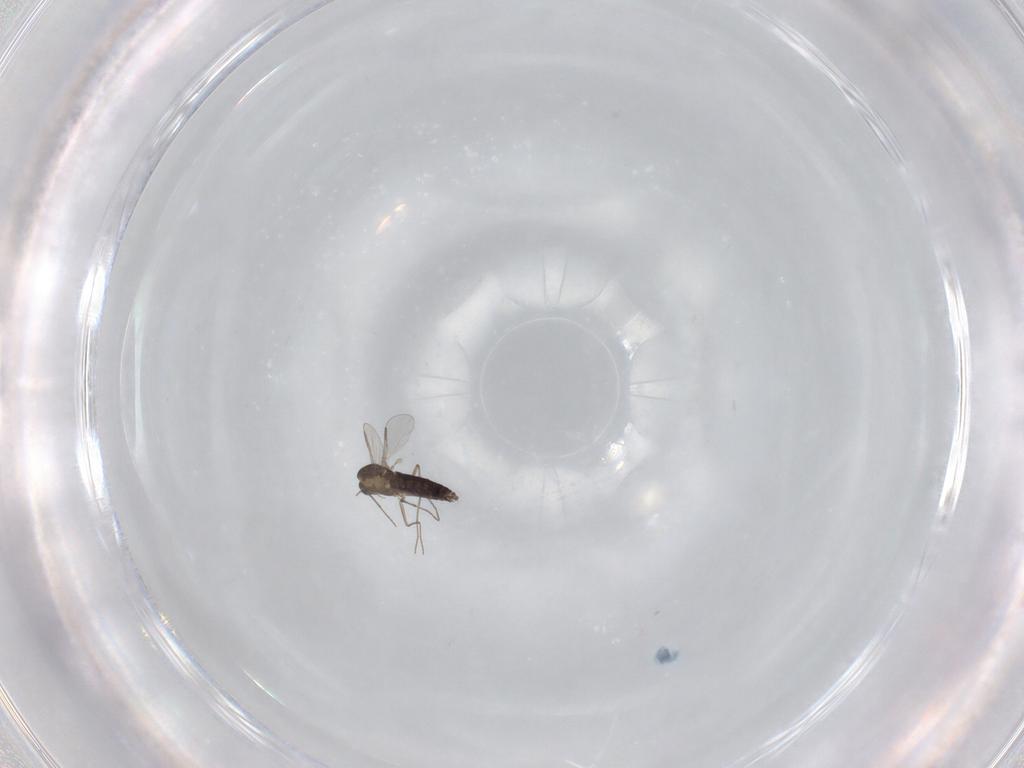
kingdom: Animalia
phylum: Arthropoda
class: Insecta
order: Diptera
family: Chironomidae
